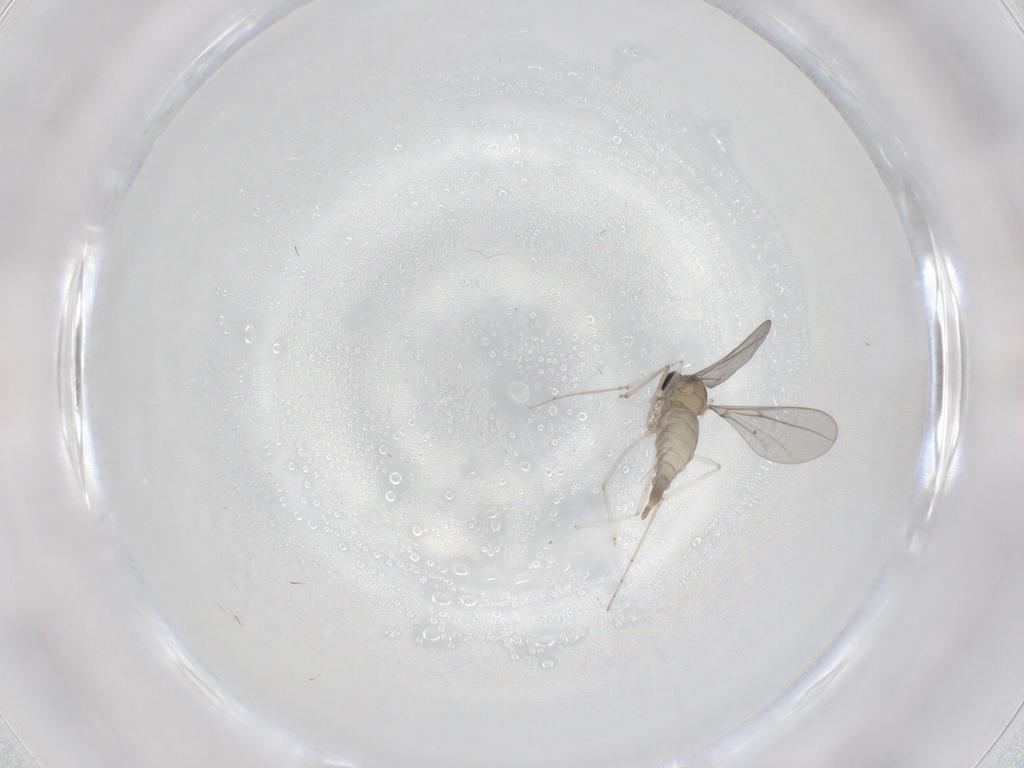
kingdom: Animalia
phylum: Arthropoda
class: Insecta
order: Diptera
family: Cecidomyiidae
